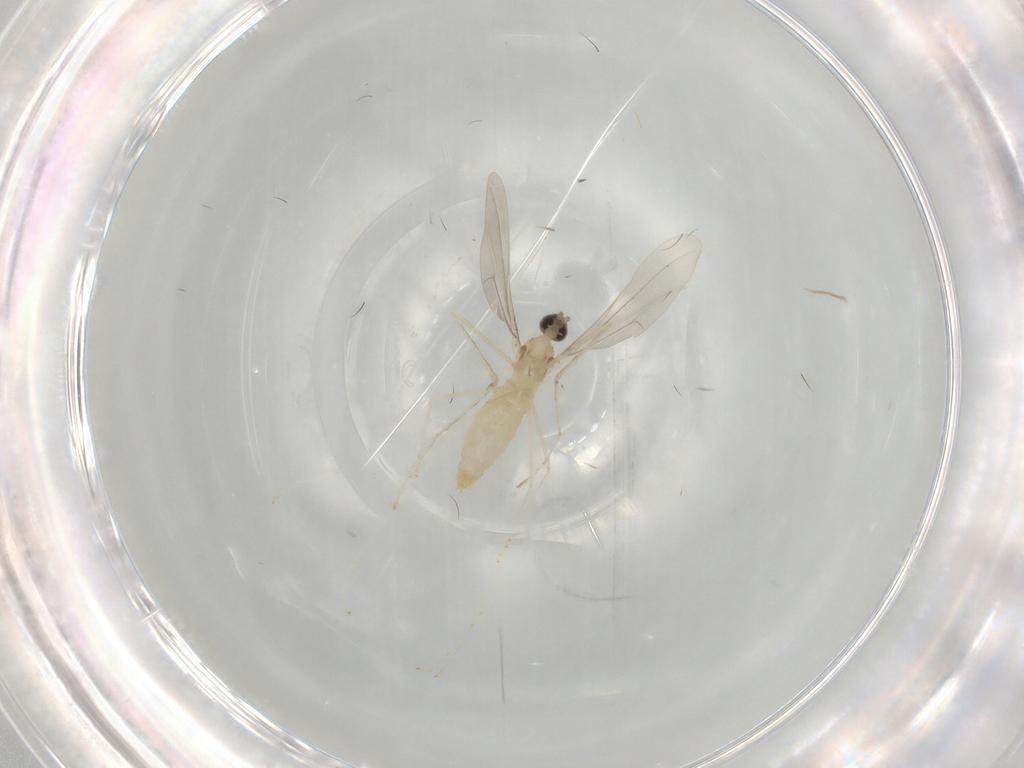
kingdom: Animalia
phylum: Arthropoda
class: Insecta
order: Diptera
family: Cecidomyiidae
